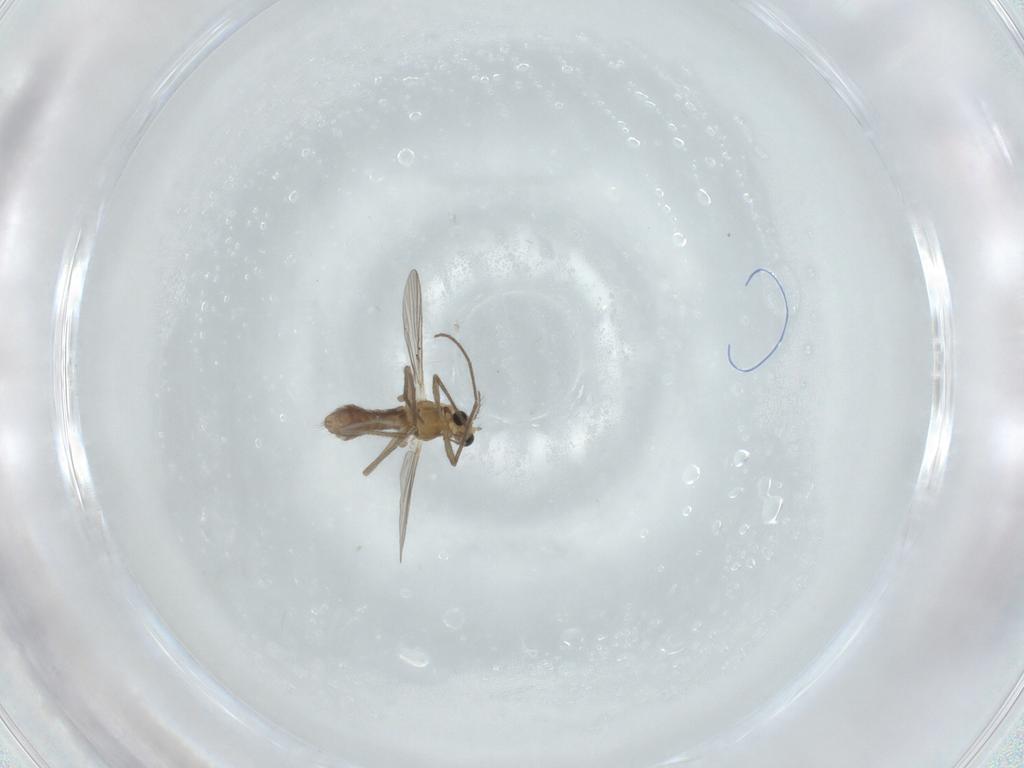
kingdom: Animalia
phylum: Arthropoda
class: Insecta
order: Diptera
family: Chironomidae
